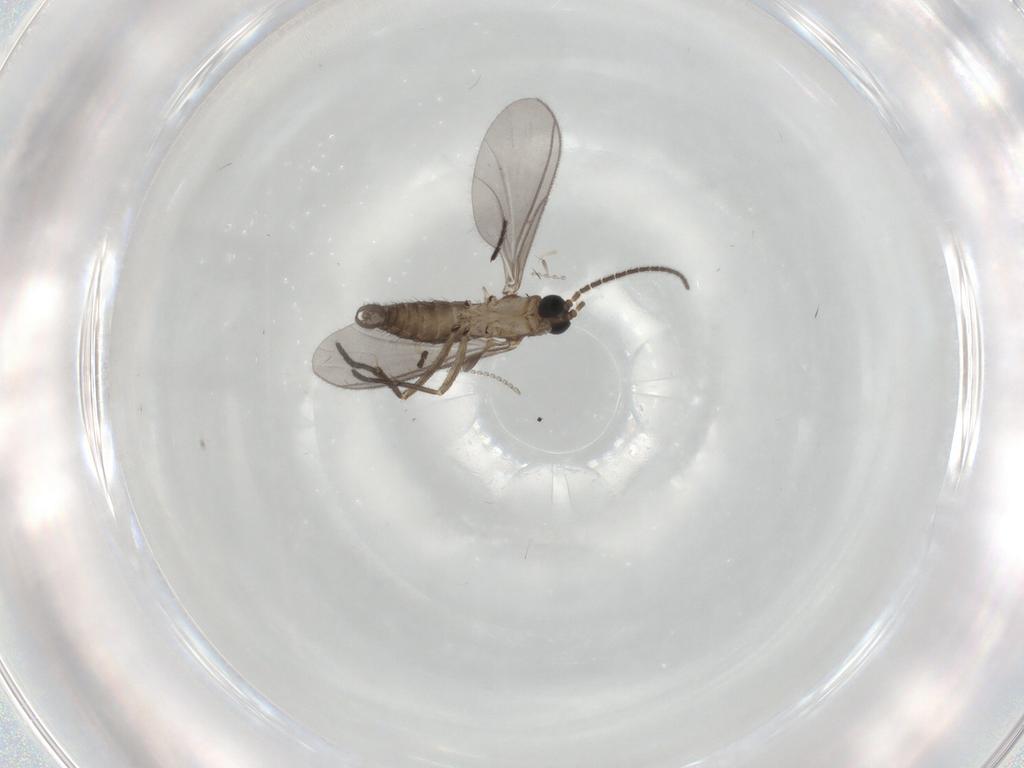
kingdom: Animalia
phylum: Arthropoda
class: Insecta
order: Diptera
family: Sciaridae
